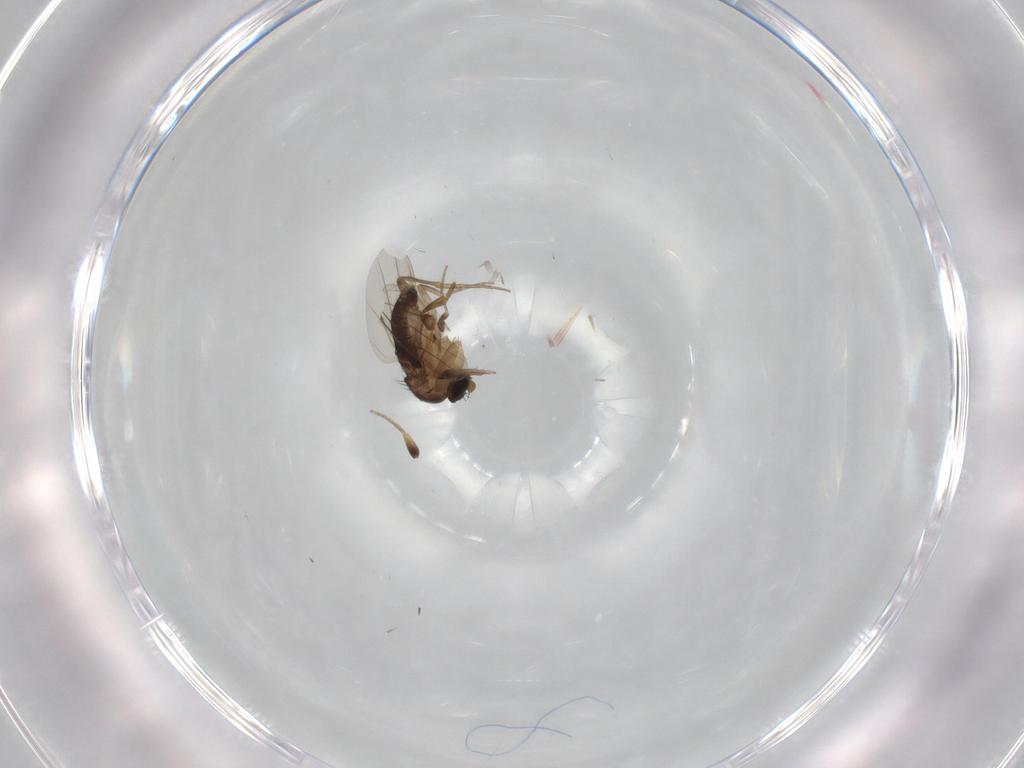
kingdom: Animalia
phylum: Arthropoda
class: Insecta
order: Diptera
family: Phoridae
